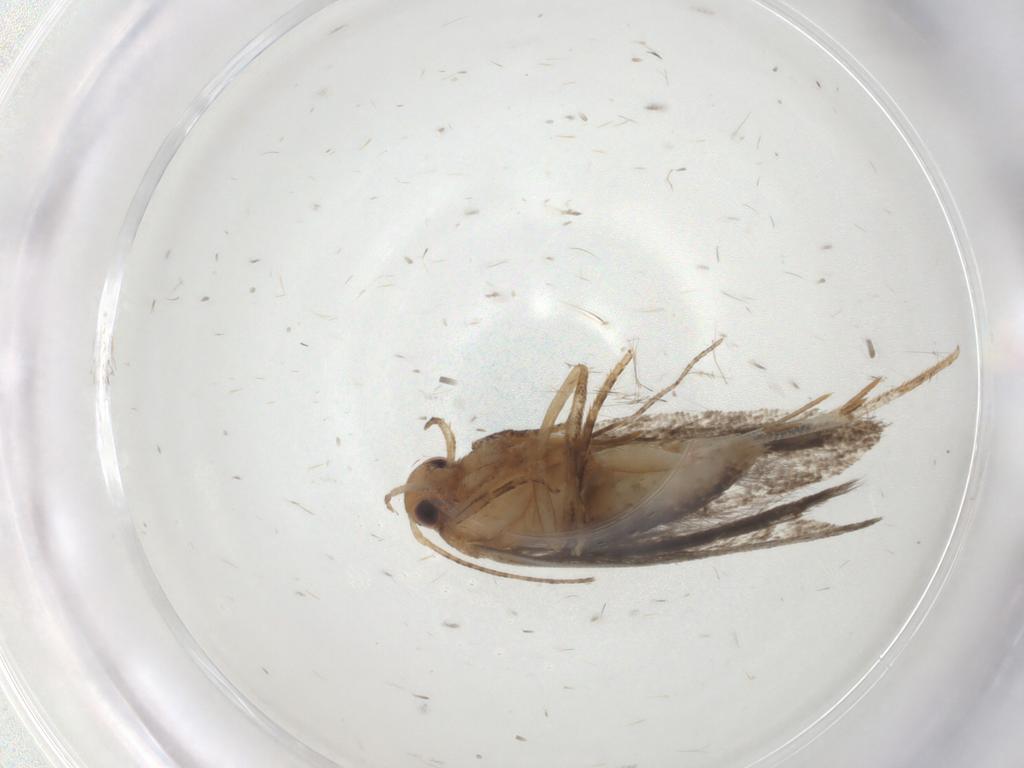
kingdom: Animalia
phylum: Arthropoda
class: Insecta
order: Lepidoptera
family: Gelechiidae
